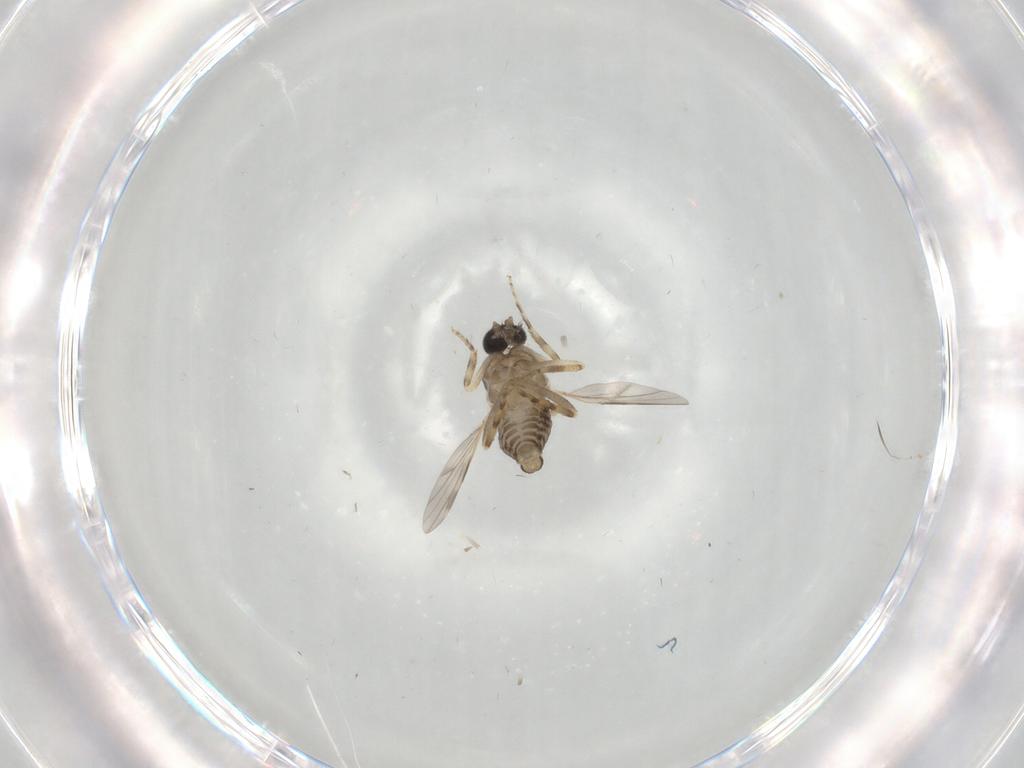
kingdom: Animalia
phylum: Arthropoda
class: Insecta
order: Diptera
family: Ceratopogonidae
